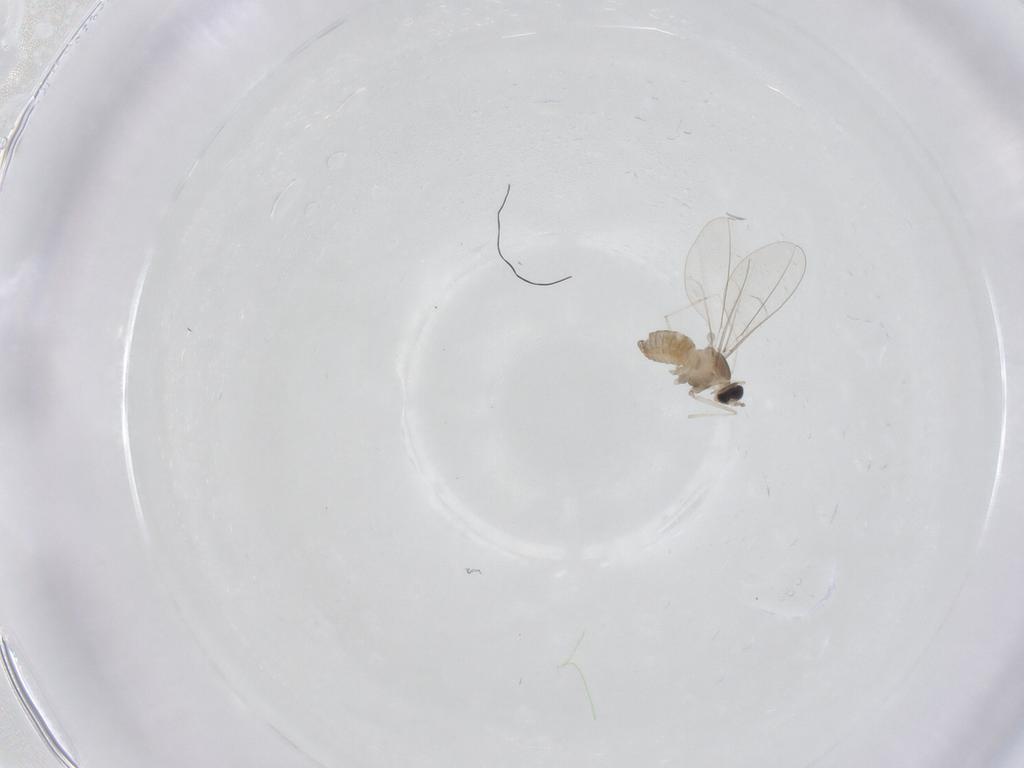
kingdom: Animalia
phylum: Arthropoda
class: Insecta
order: Diptera
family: Cecidomyiidae
